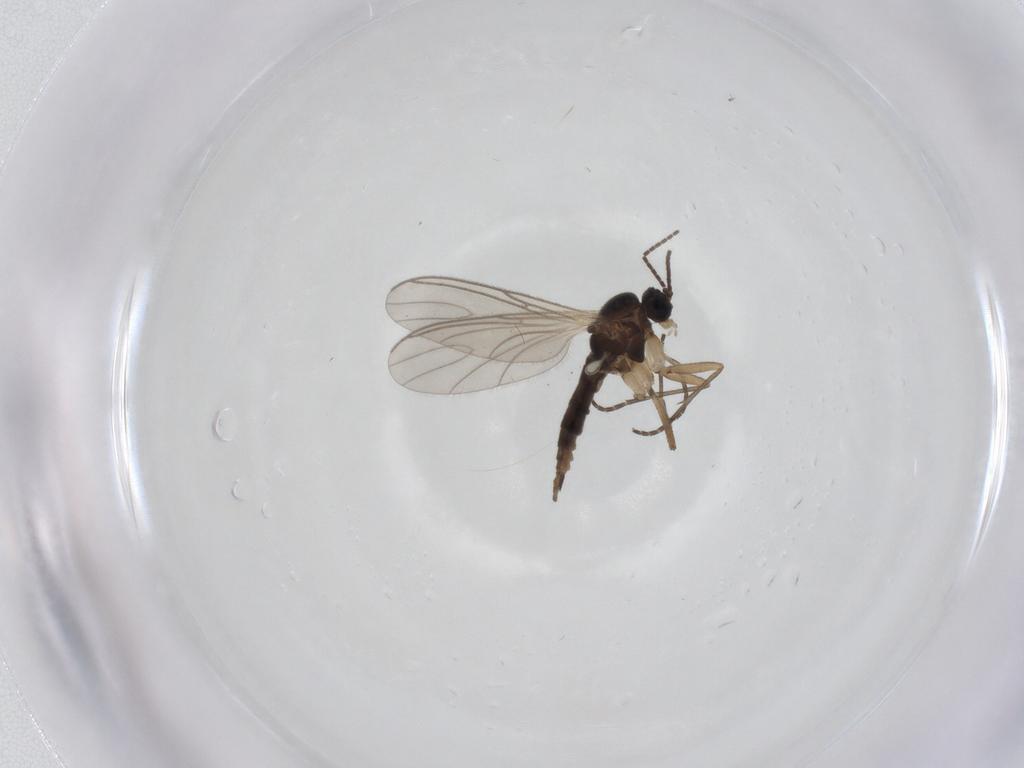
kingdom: Animalia
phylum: Arthropoda
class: Insecta
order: Diptera
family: Sciaridae
